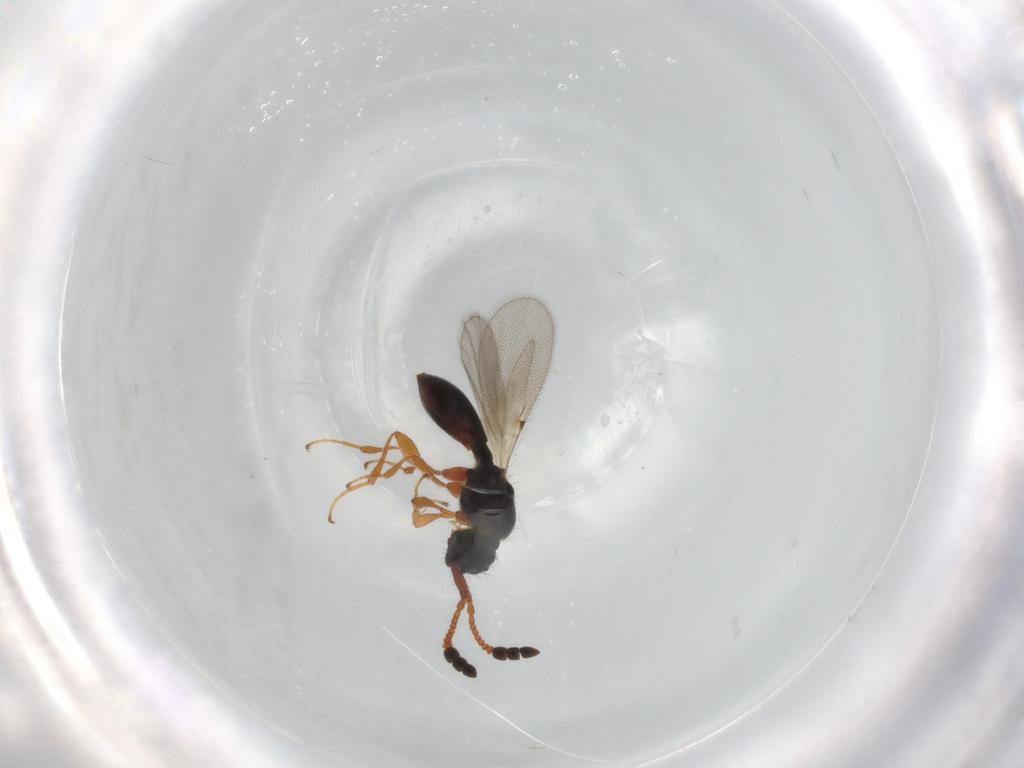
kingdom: Animalia
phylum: Arthropoda
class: Insecta
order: Hymenoptera
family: Diapriidae
